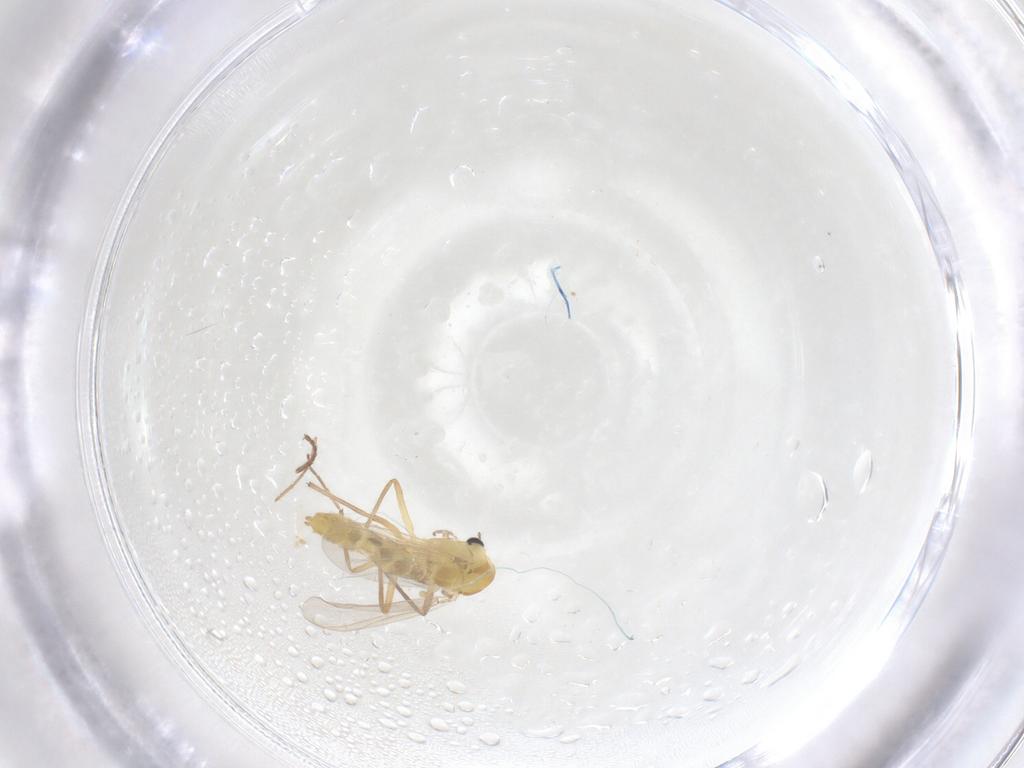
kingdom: Animalia
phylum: Arthropoda
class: Insecta
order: Diptera
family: Chironomidae
